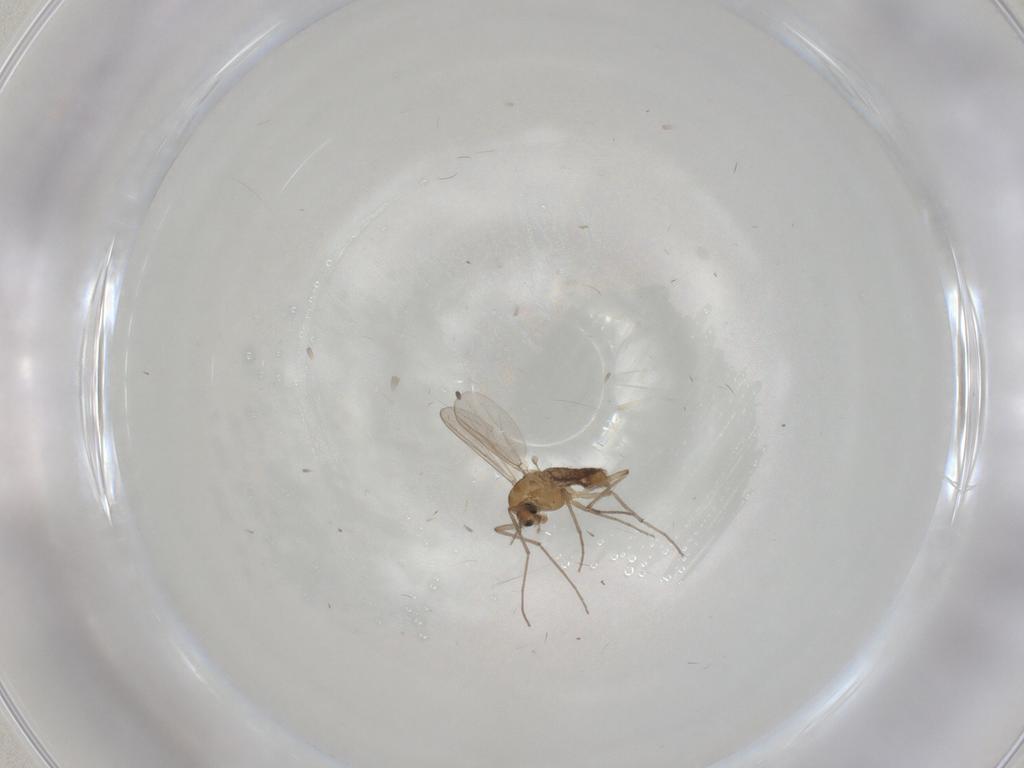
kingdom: Animalia
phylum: Arthropoda
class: Insecta
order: Diptera
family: Chironomidae
